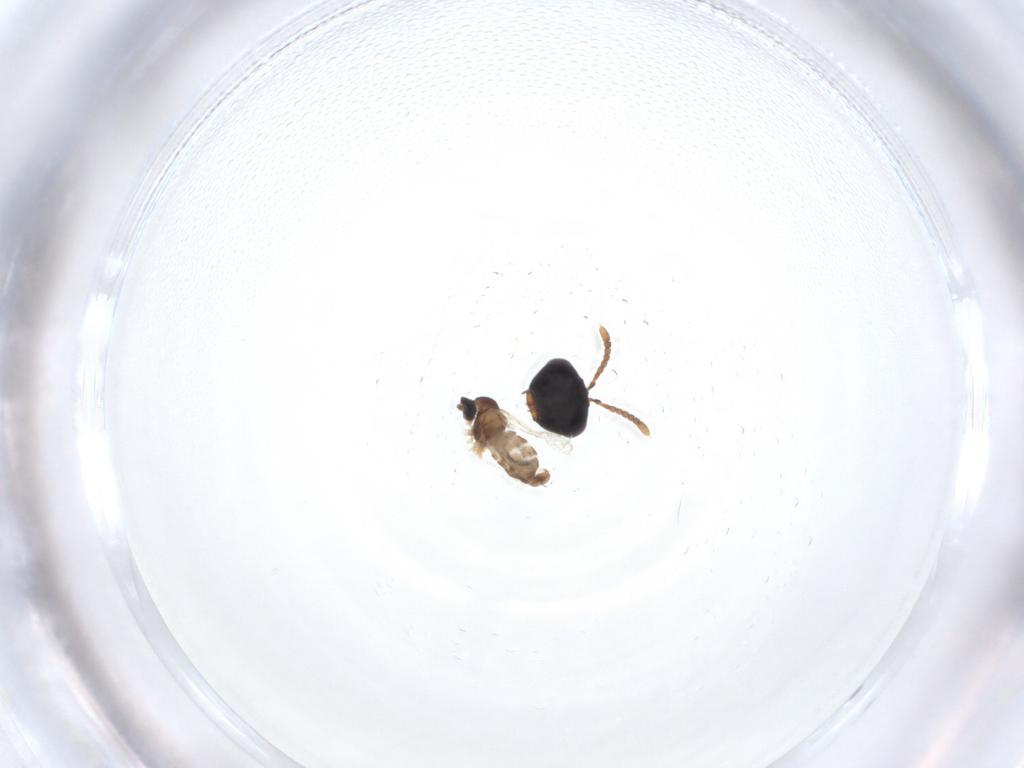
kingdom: Animalia
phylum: Arthropoda
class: Insecta
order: Diptera
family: Cecidomyiidae
